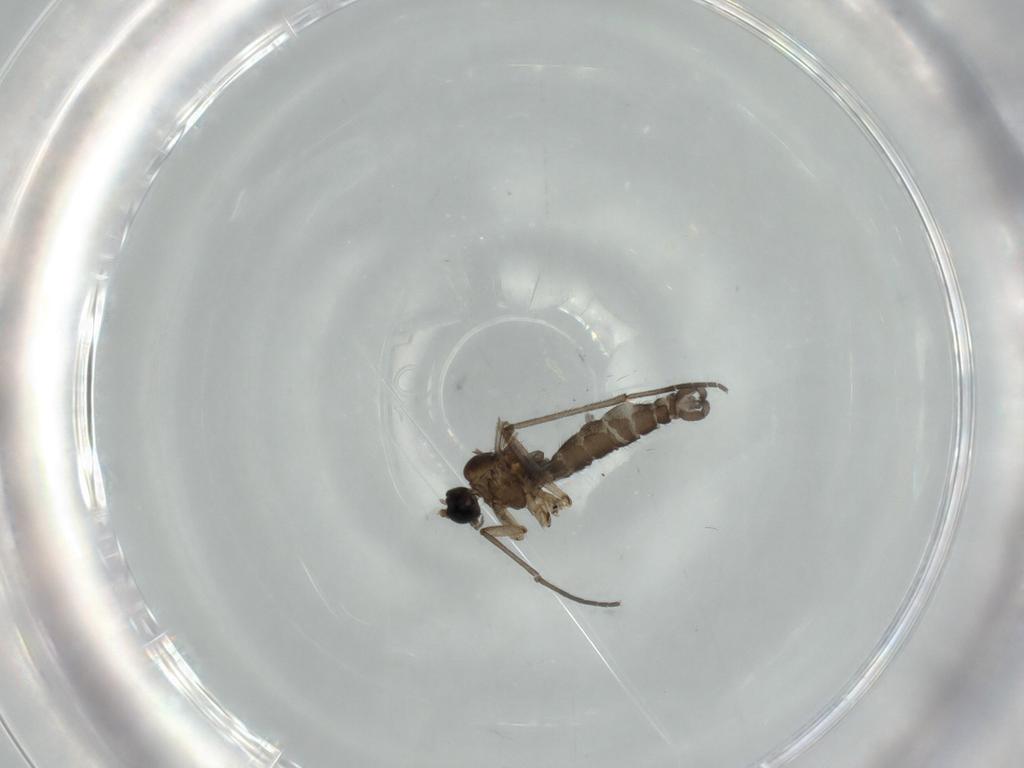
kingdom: Animalia
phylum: Arthropoda
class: Insecta
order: Diptera
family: Sciaridae
